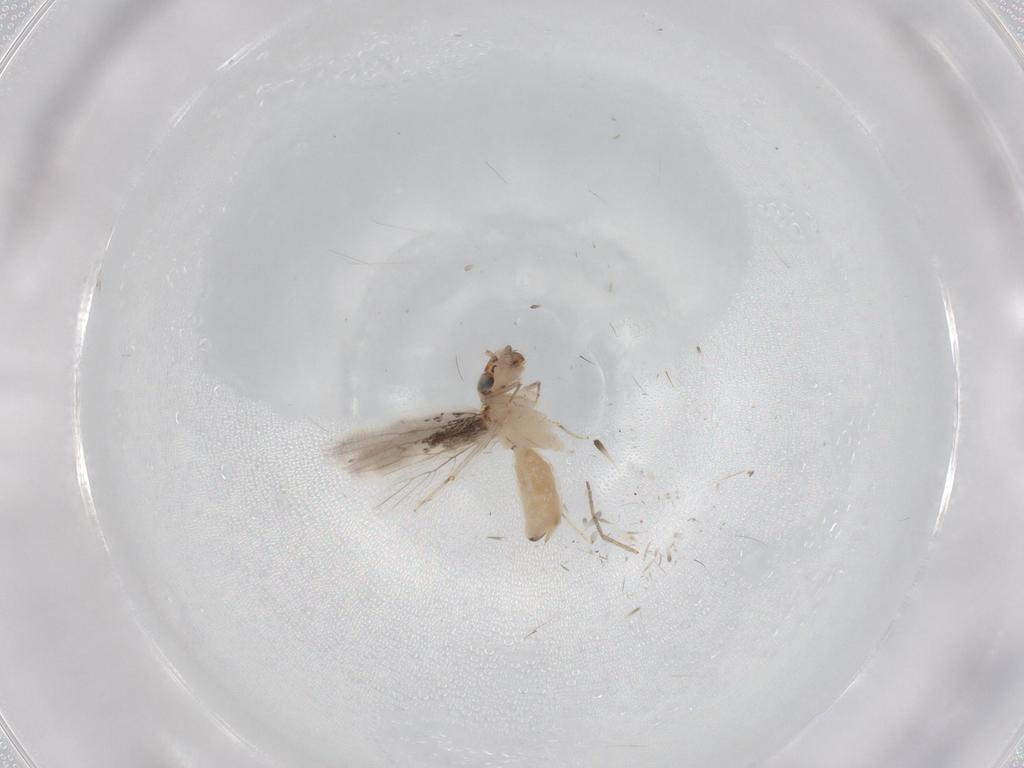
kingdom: Animalia
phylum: Arthropoda
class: Insecta
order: Psocodea
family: Lepidopsocidae
